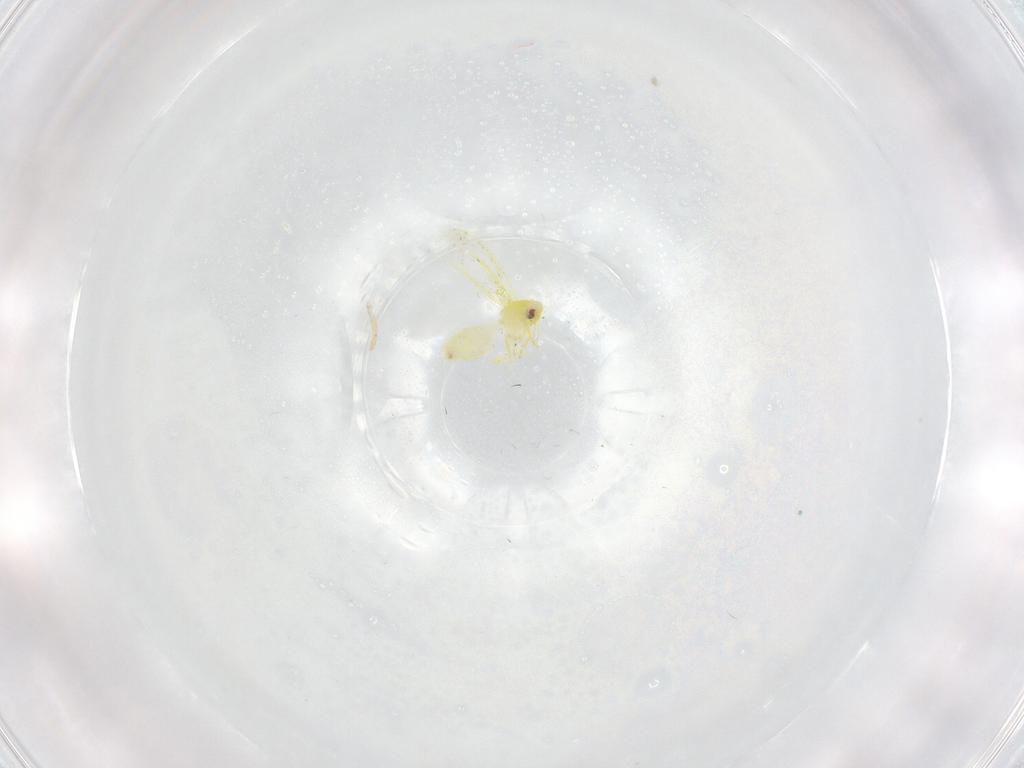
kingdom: Animalia
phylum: Arthropoda
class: Insecta
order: Hemiptera
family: Aleyrodidae
